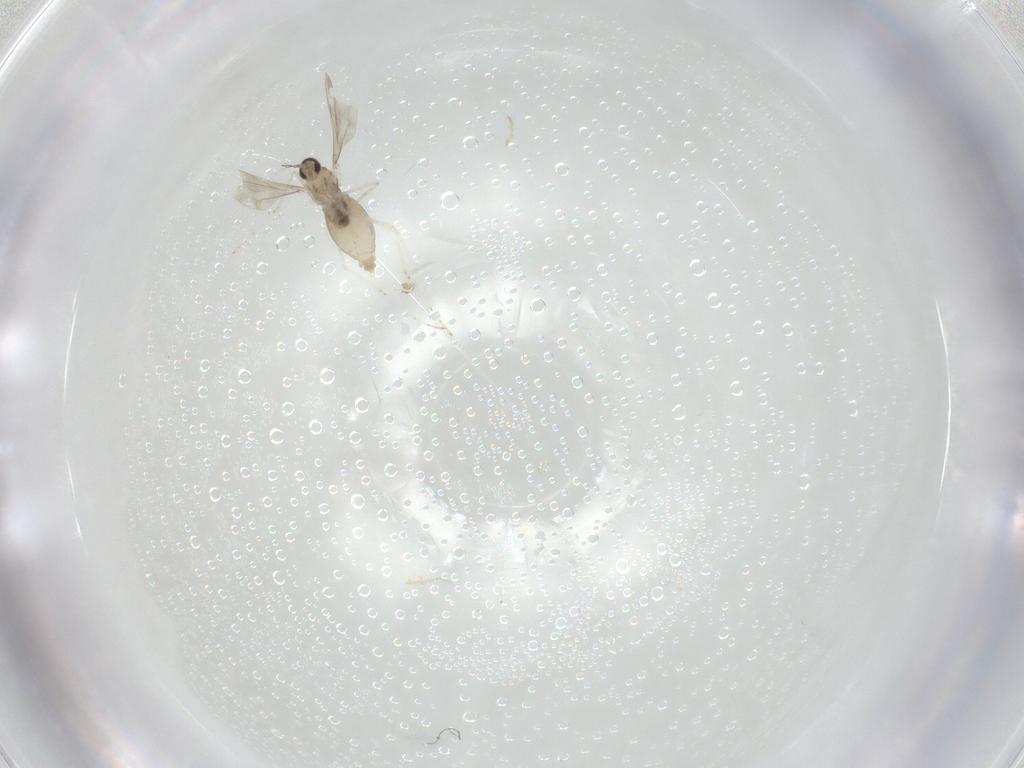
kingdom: Animalia
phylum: Arthropoda
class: Insecta
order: Diptera
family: Cecidomyiidae
